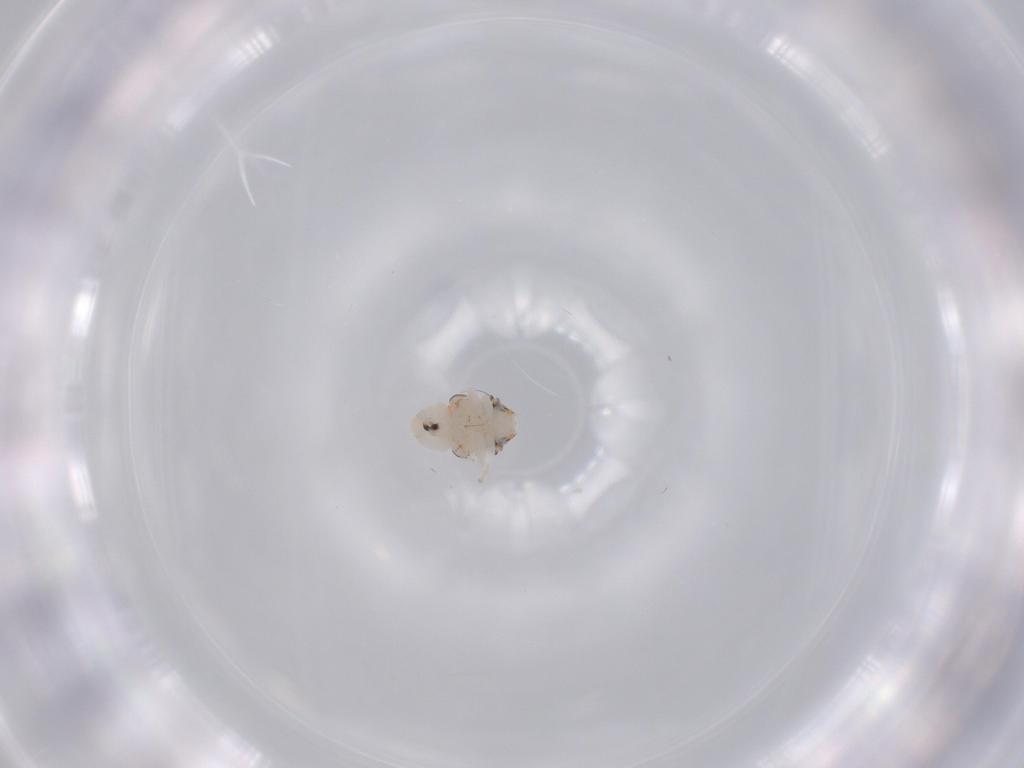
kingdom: Animalia
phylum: Arthropoda
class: Insecta
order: Hemiptera
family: Nogodinidae
